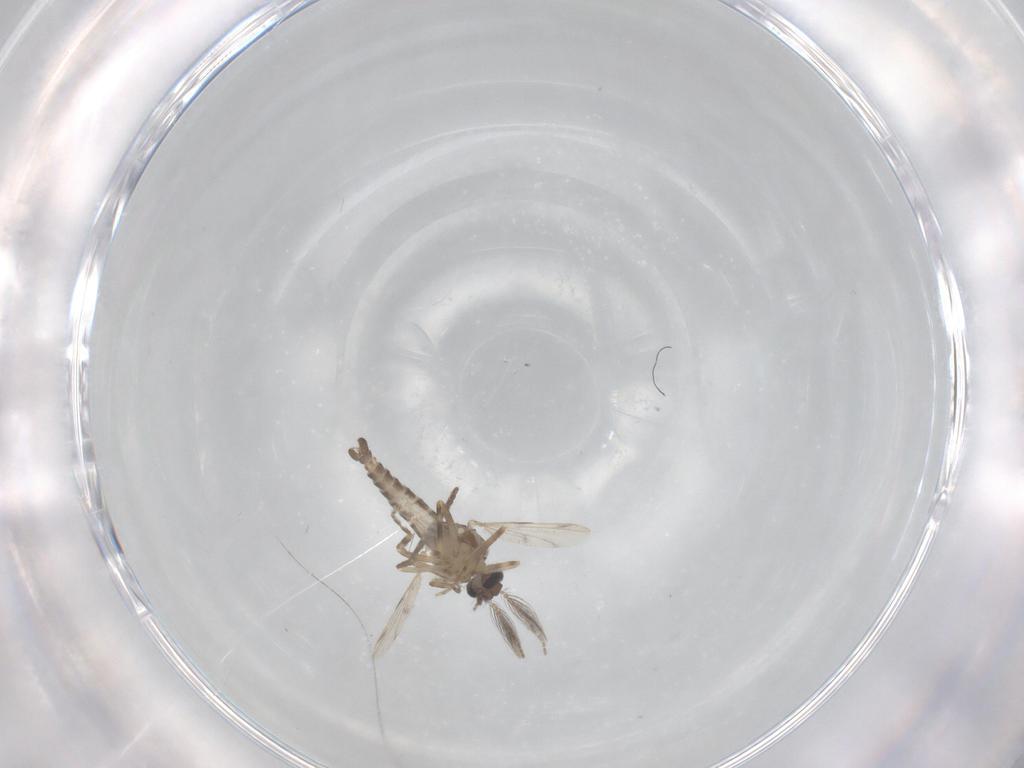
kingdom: Animalia
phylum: Arthropoda
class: Insecta
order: Diptera
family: Ceratopogonidae
